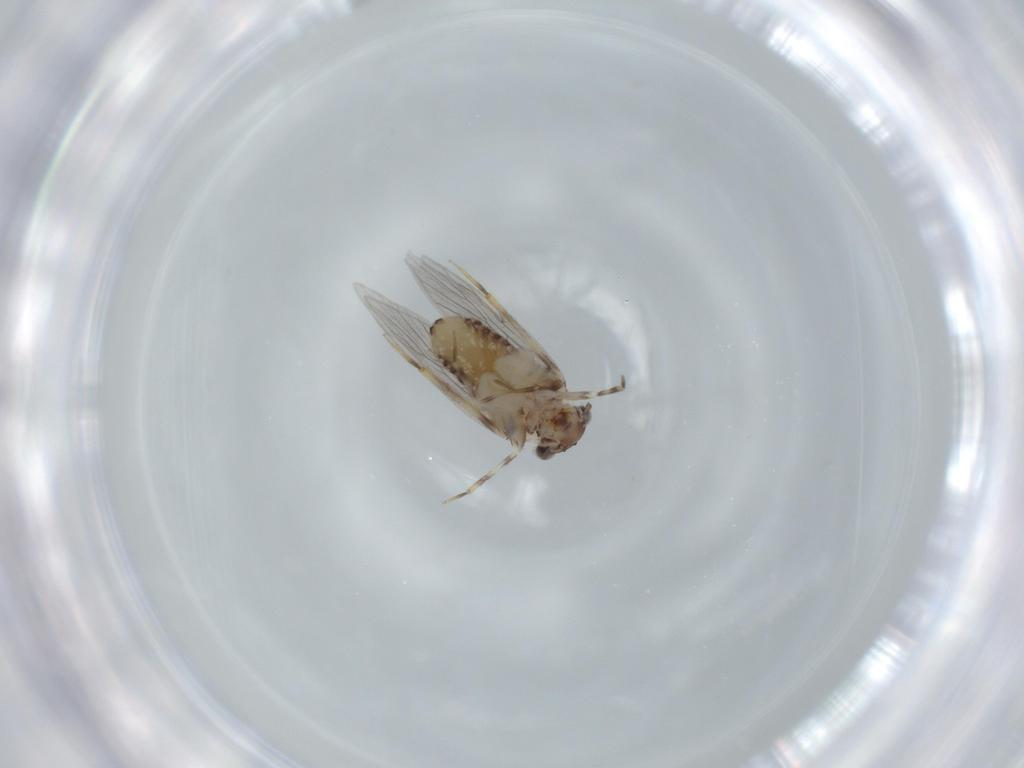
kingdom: Animalia
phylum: Arthropoda
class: Insecta
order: Psocodea
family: Lepidopsocidae
